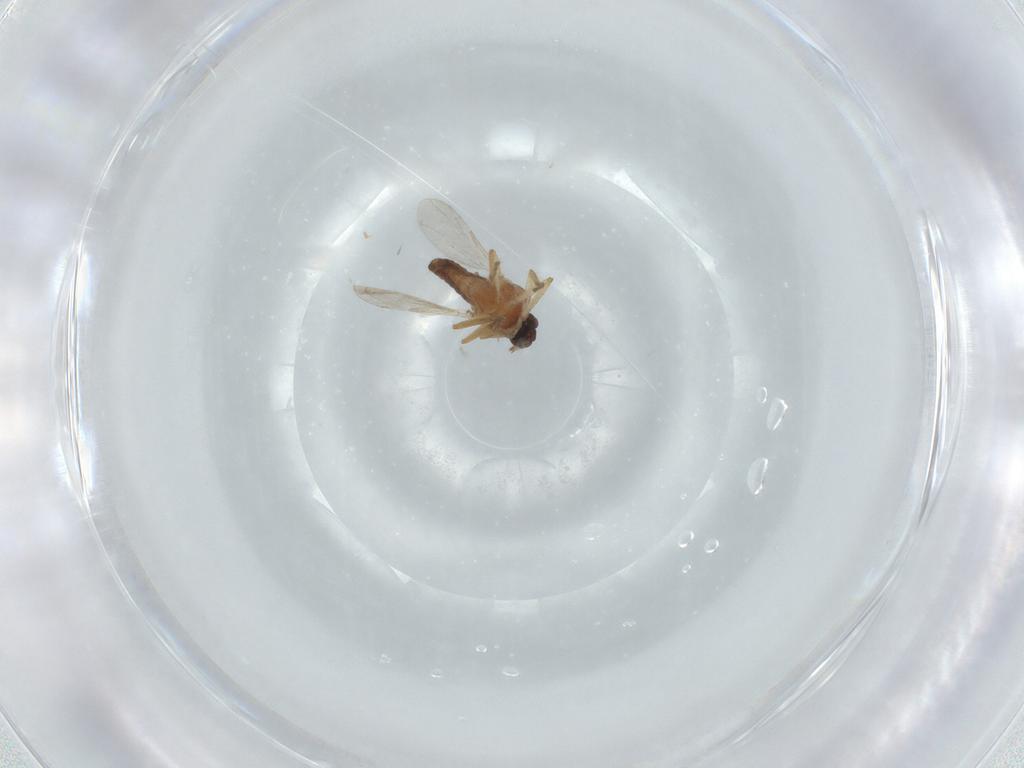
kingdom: Animalia
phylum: Arthropoda
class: Insecta
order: Diptera
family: Ceratopogonidae
